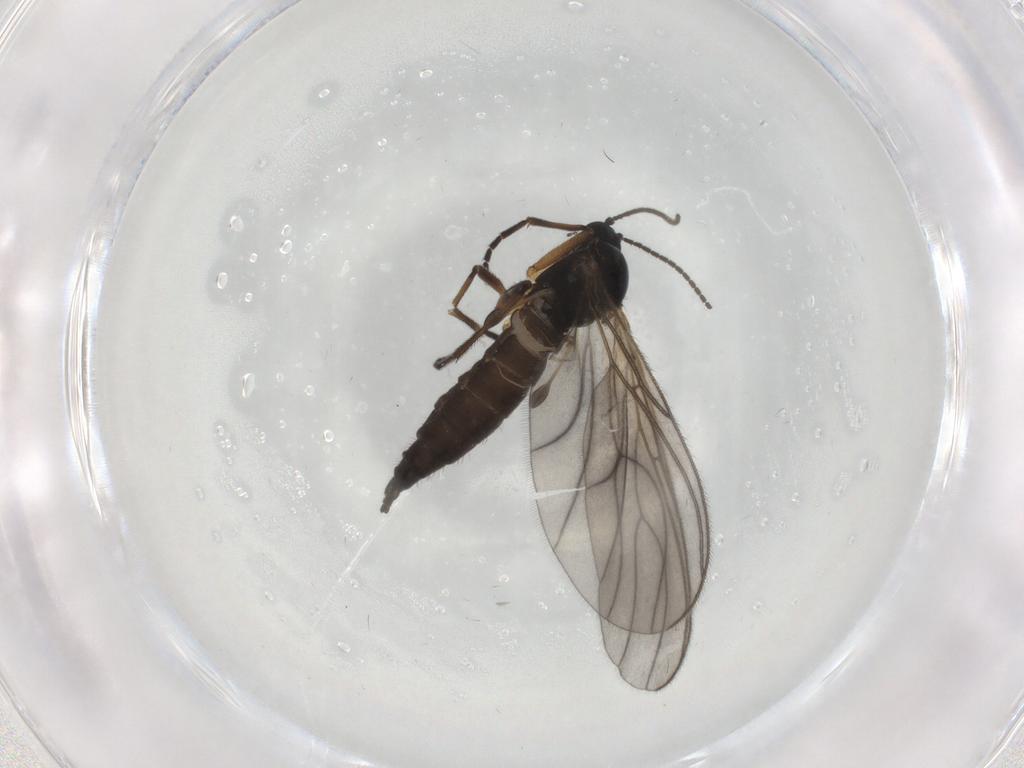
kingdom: Animalia
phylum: Arthropoda
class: Insecta
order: Diptera
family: Sciaridae
